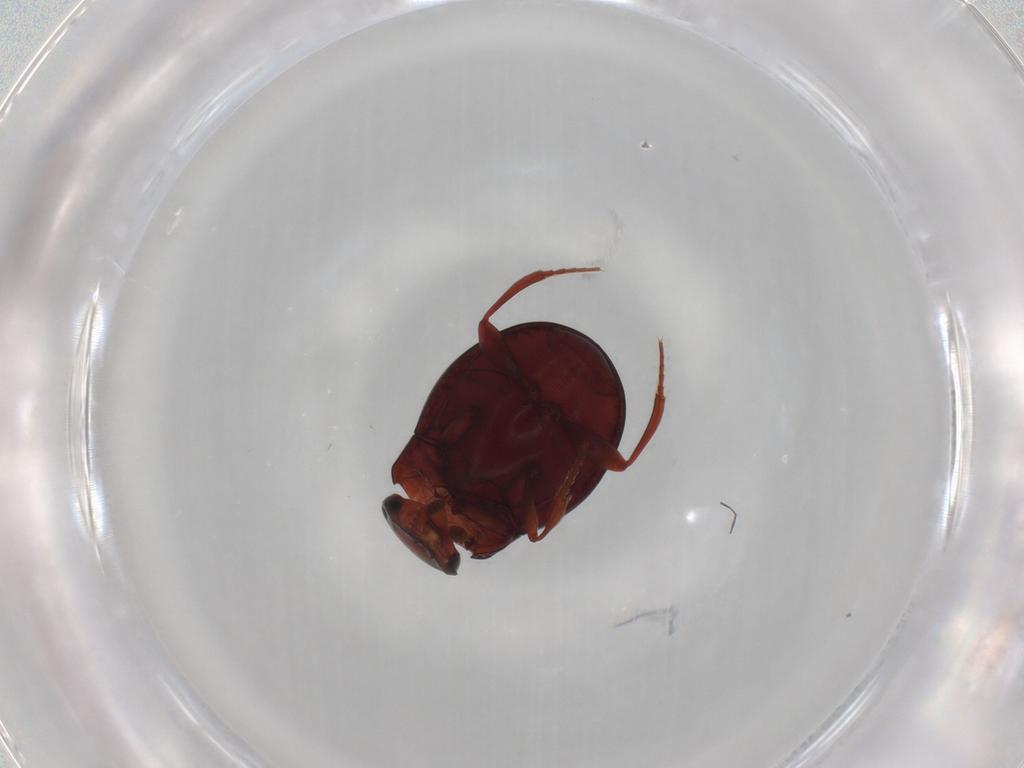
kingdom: Animalia
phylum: Arthropoda
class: Insecta
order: Coleoptera
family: Scarabaeidae
